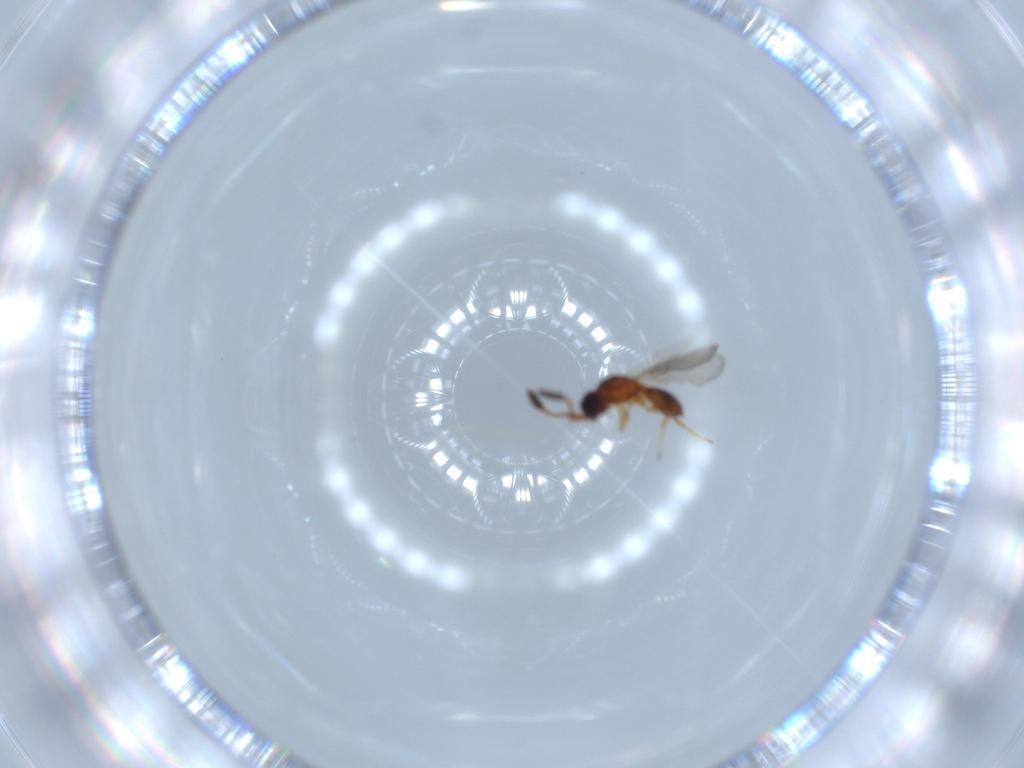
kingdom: Animalia
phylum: Arthropoda
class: Insecta
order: Hymenoptera
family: Diapriidae
